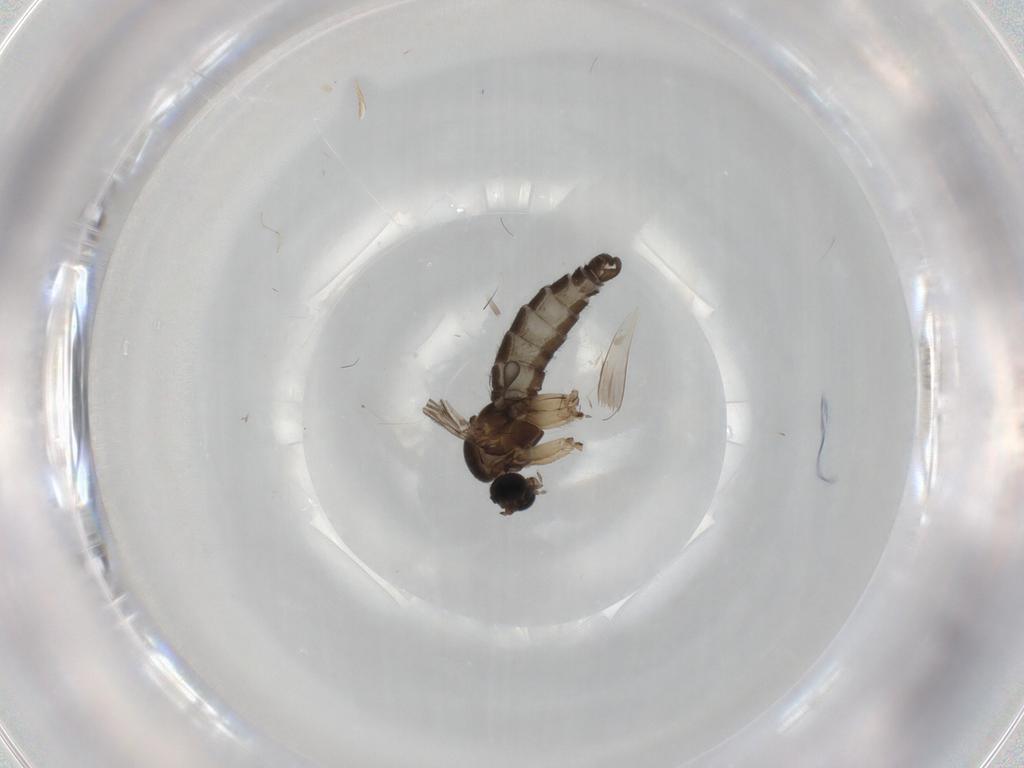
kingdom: Animalia
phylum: Arthropoda
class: Insecta
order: Diptera
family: Sciaridae
